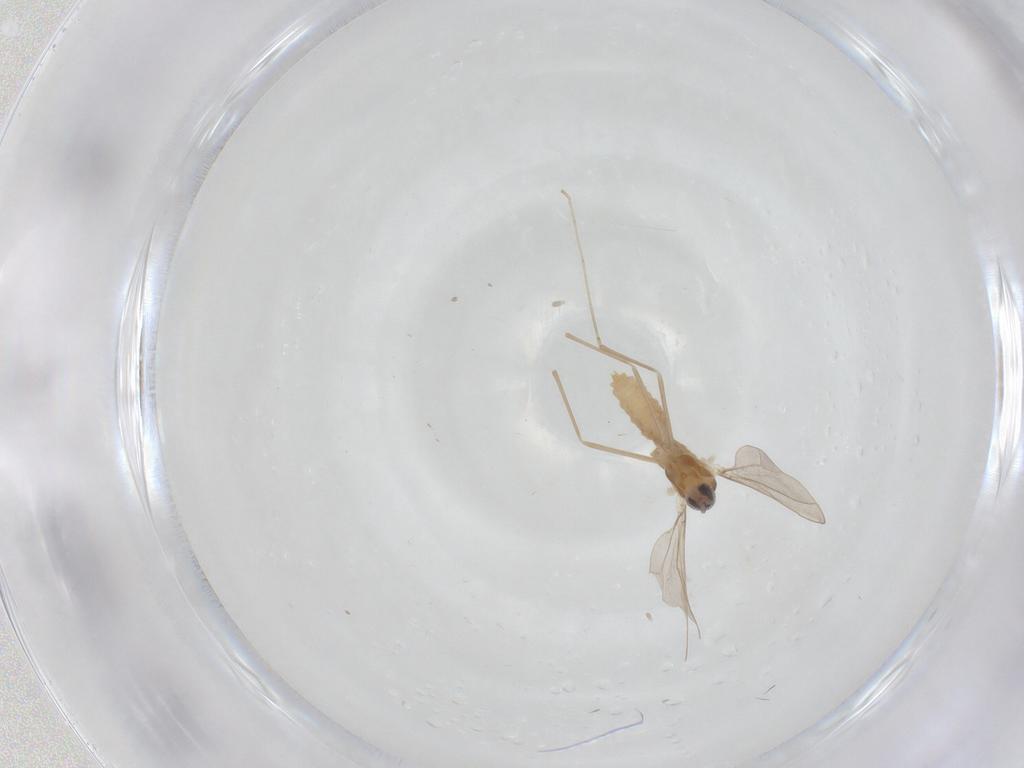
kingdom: Animalia
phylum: Arthropoda
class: Insecta
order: Diptera
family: Cecidomyiidae
